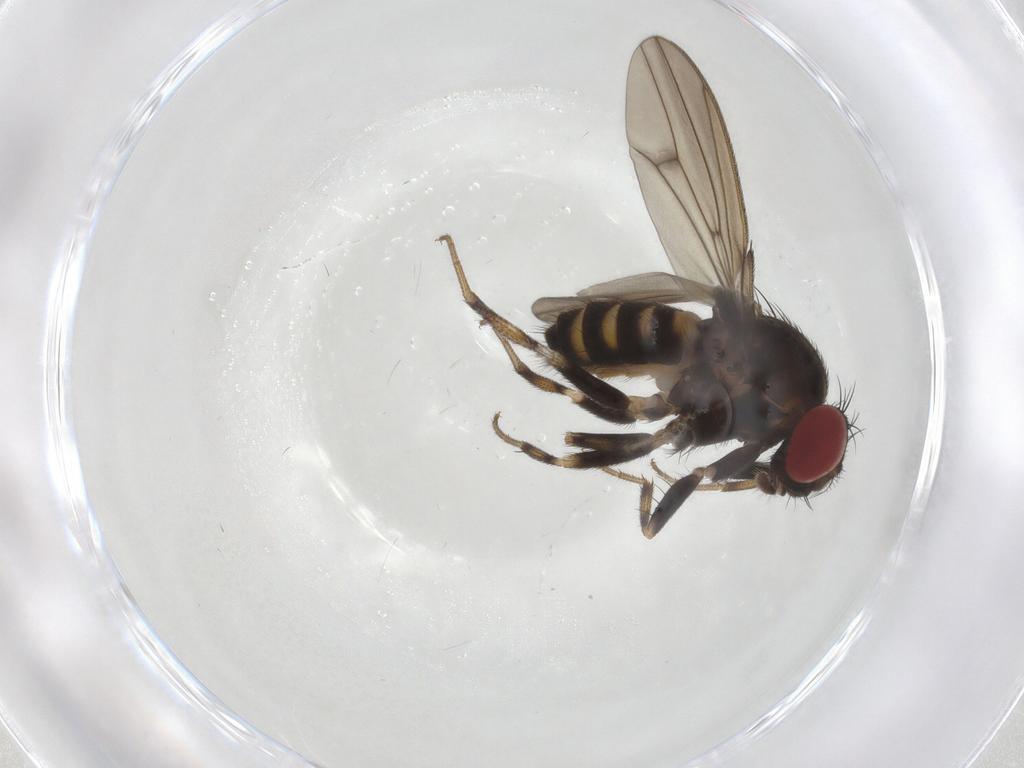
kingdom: Animalia
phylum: Arthropoda
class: Insecta
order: Diptera
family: Drosophilidae
